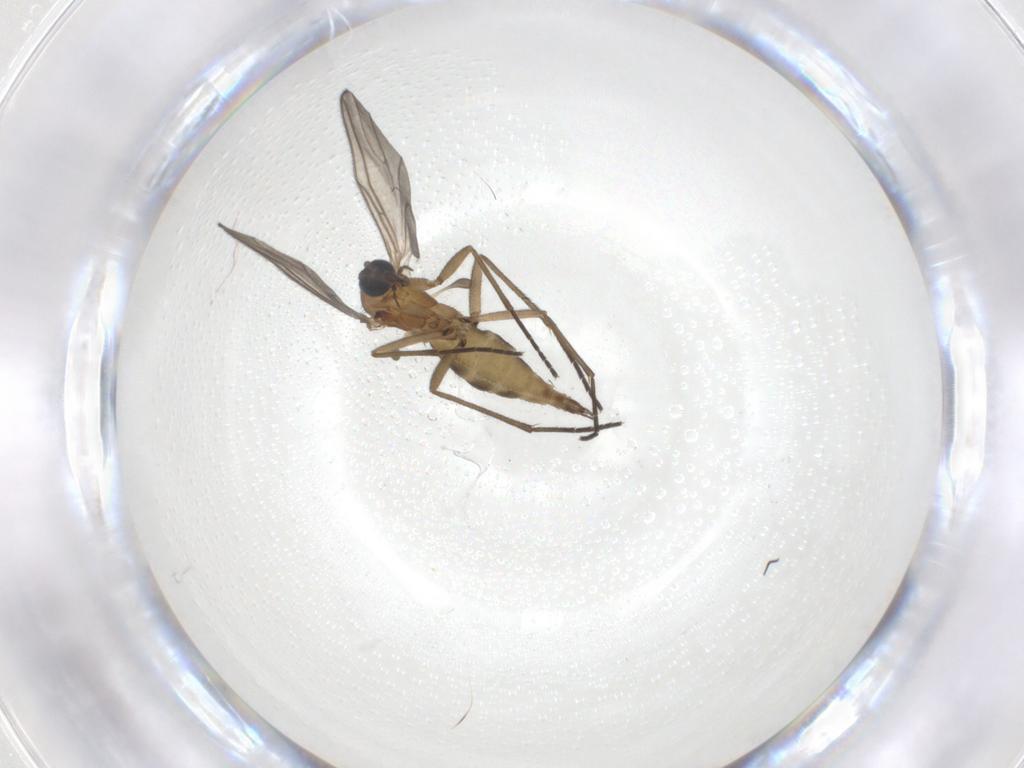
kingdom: Animalia
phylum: Arthropoda
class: Insecta
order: Diptera
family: Sciaridae
